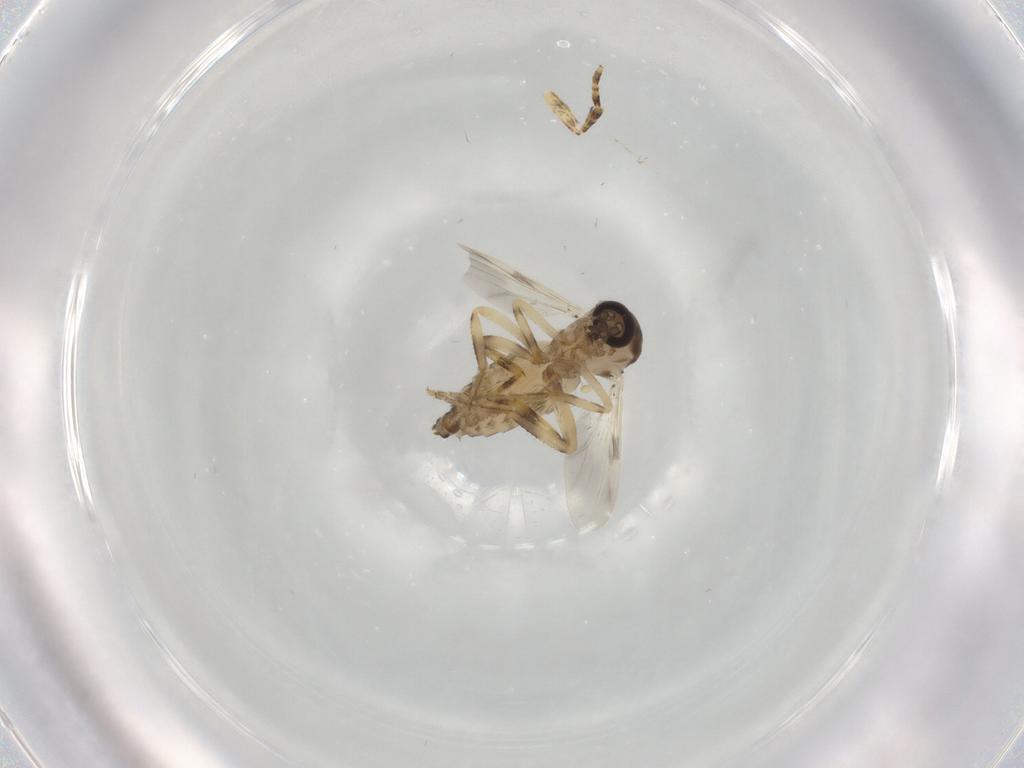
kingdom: Animalia
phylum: Arthropoda
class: Insecta
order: Diptera
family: Ceratopogonidae
